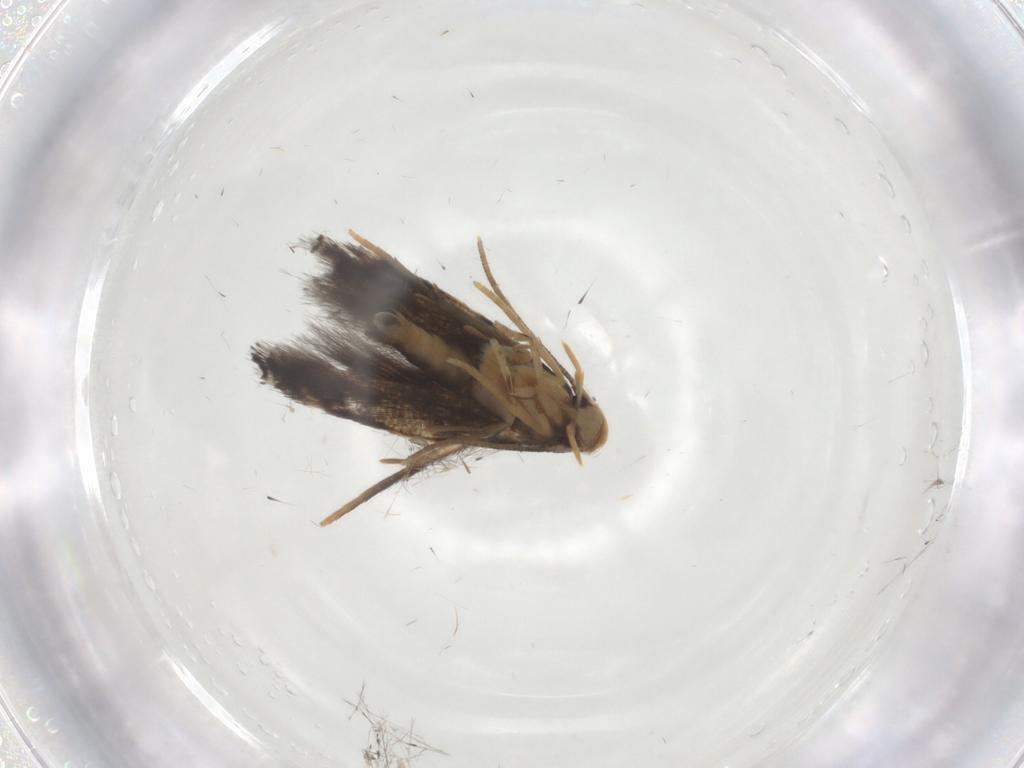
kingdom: Animalia
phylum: Arthropoda
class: Insecta
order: Lepidoptera
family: Gelechiidae
